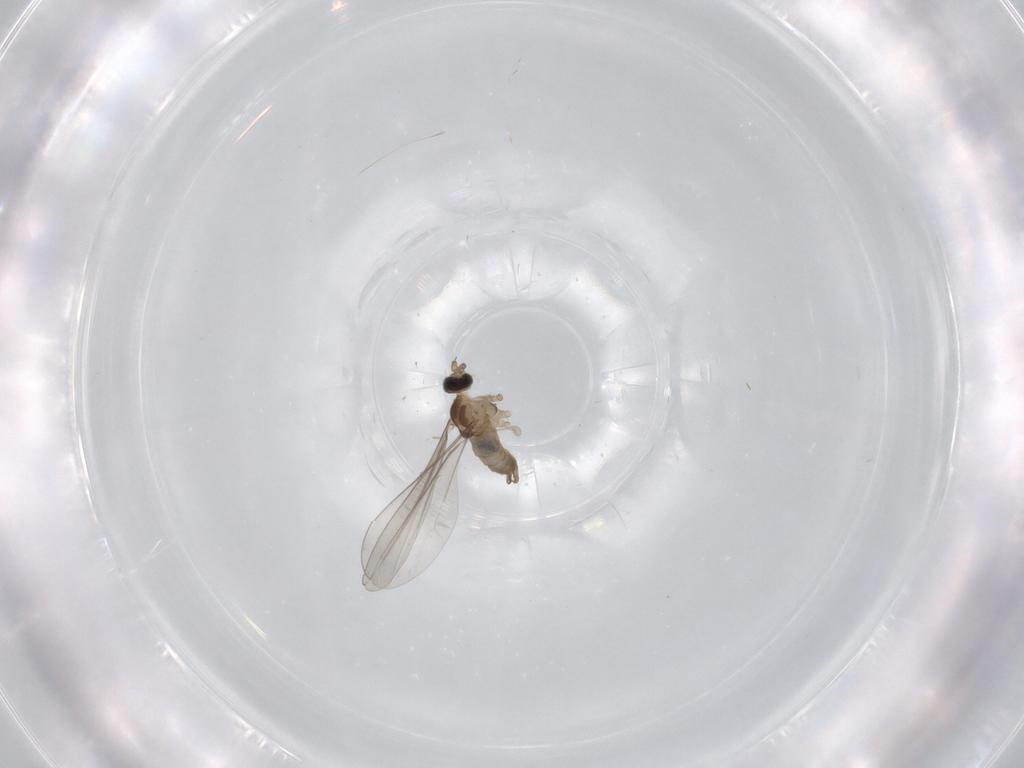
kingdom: Animalia
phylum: Arthropoda
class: Insecta
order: Diptera
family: Cecidomyiidae
